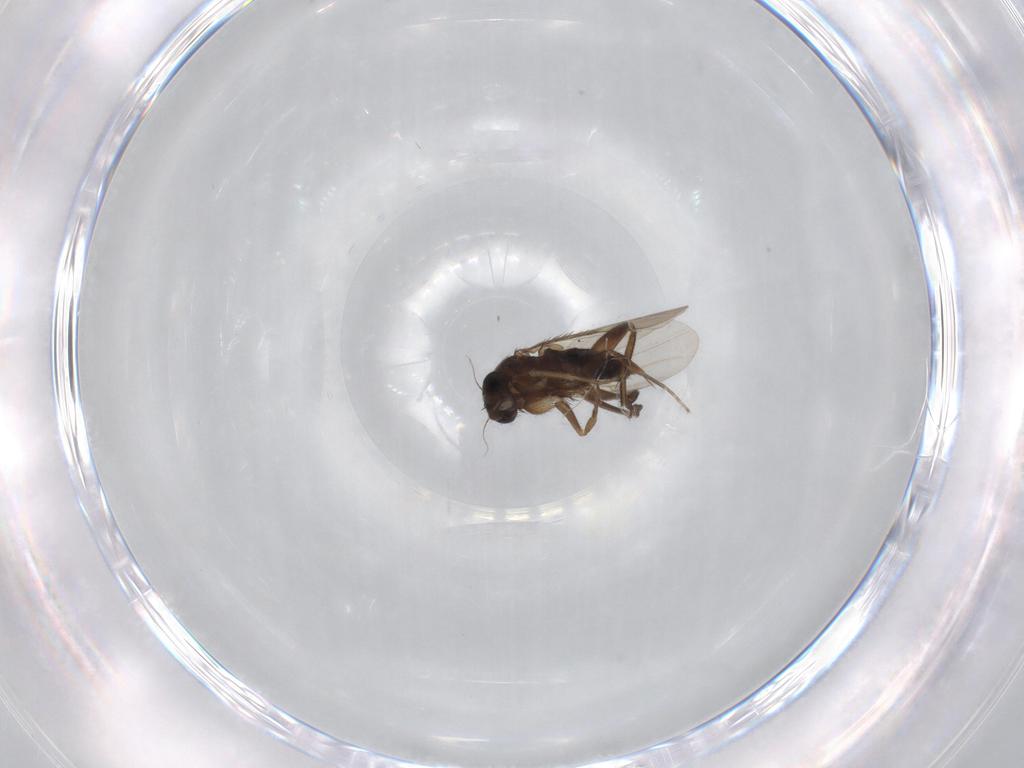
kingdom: Animalia
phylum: Arthropoda
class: Insecta
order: Diptera
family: Phoridae
